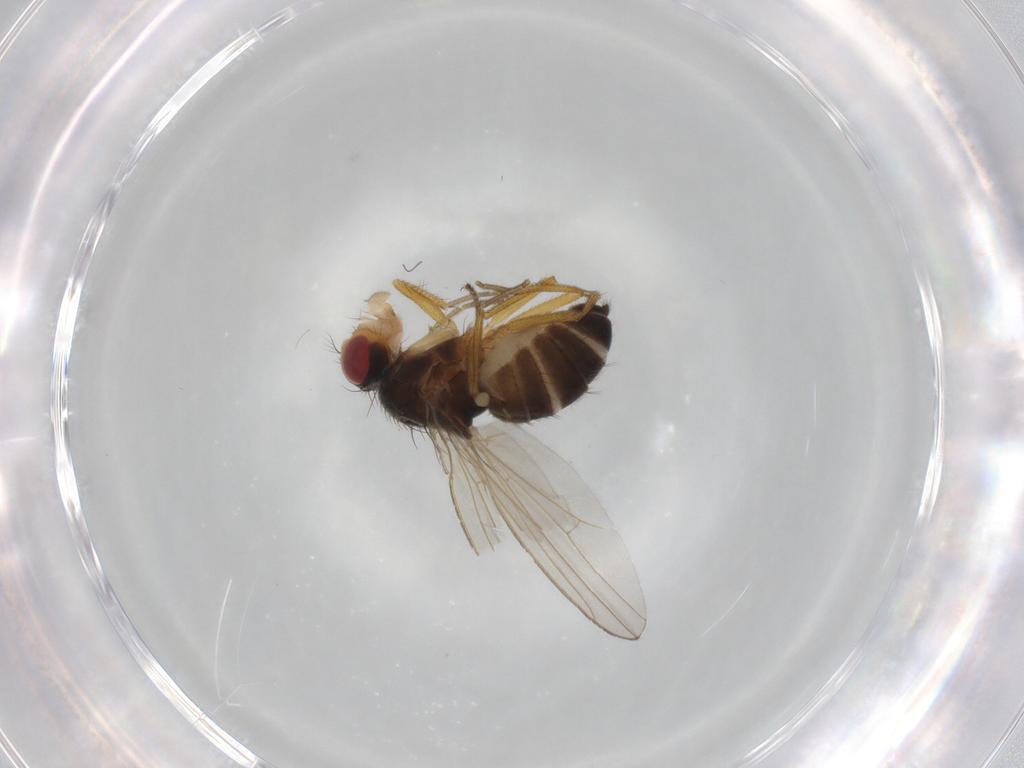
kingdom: Animalia
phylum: Arthropoda
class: Insecta
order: Diptera
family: Drosophilidae
